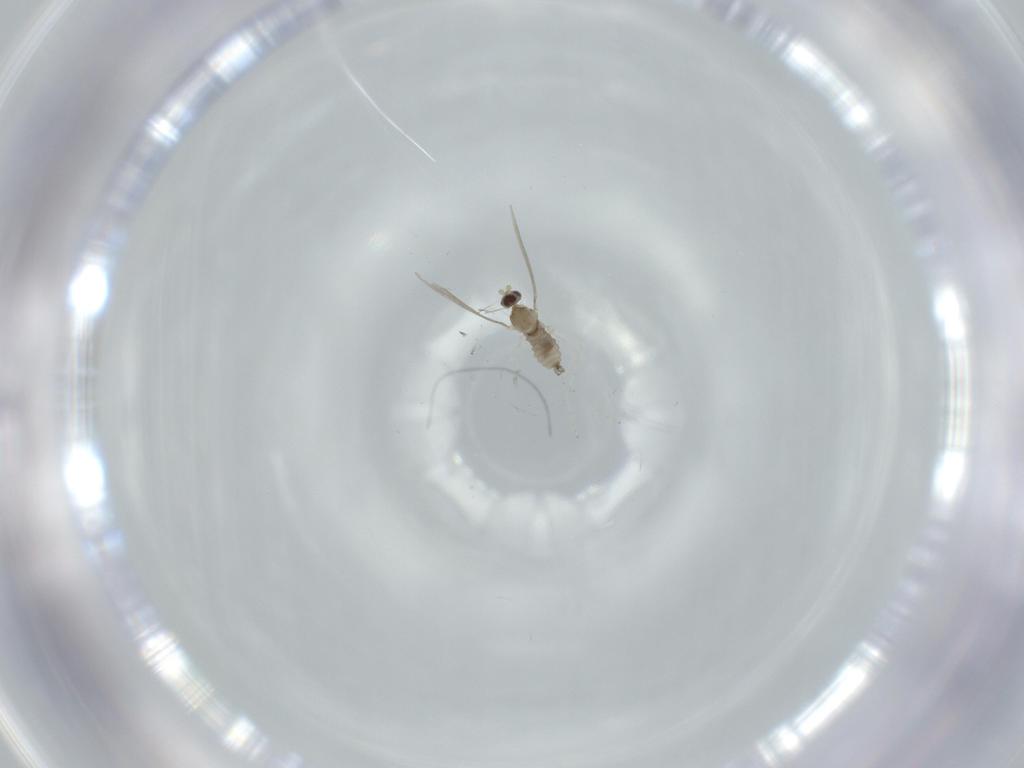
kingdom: Animalia
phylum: Arthropoda
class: Insecta
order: Diptera
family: Cecidomyiidae
